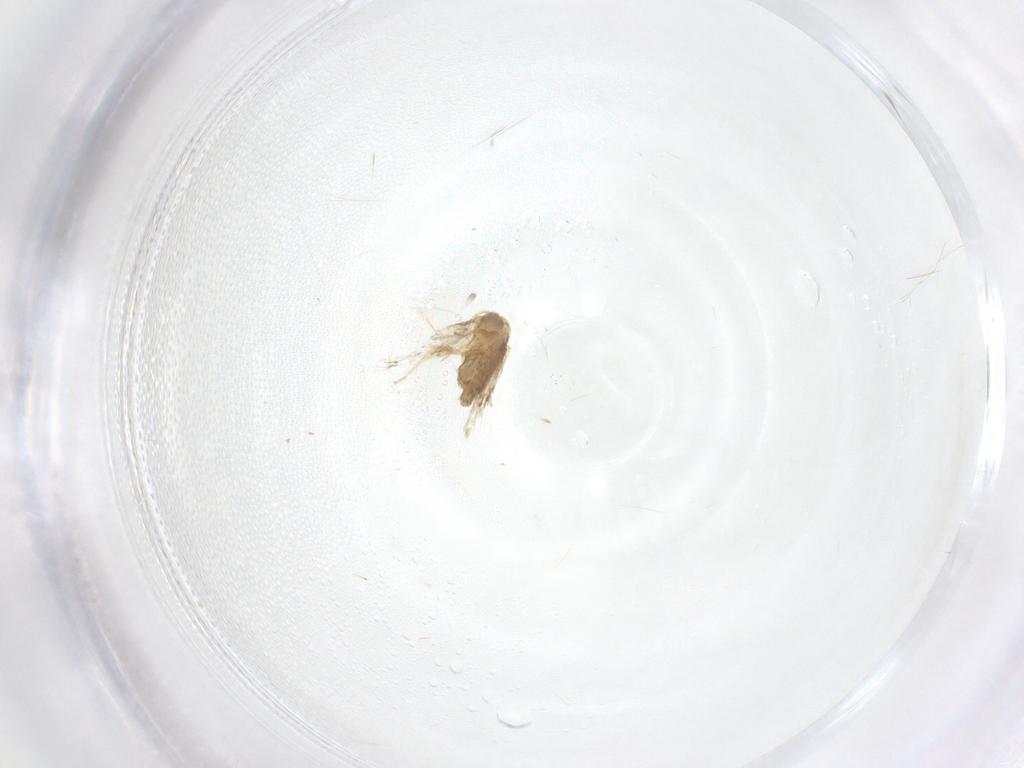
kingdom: Animalia
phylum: Arthropoda
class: Insecta
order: Lepidoptera
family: Nepticulidae
